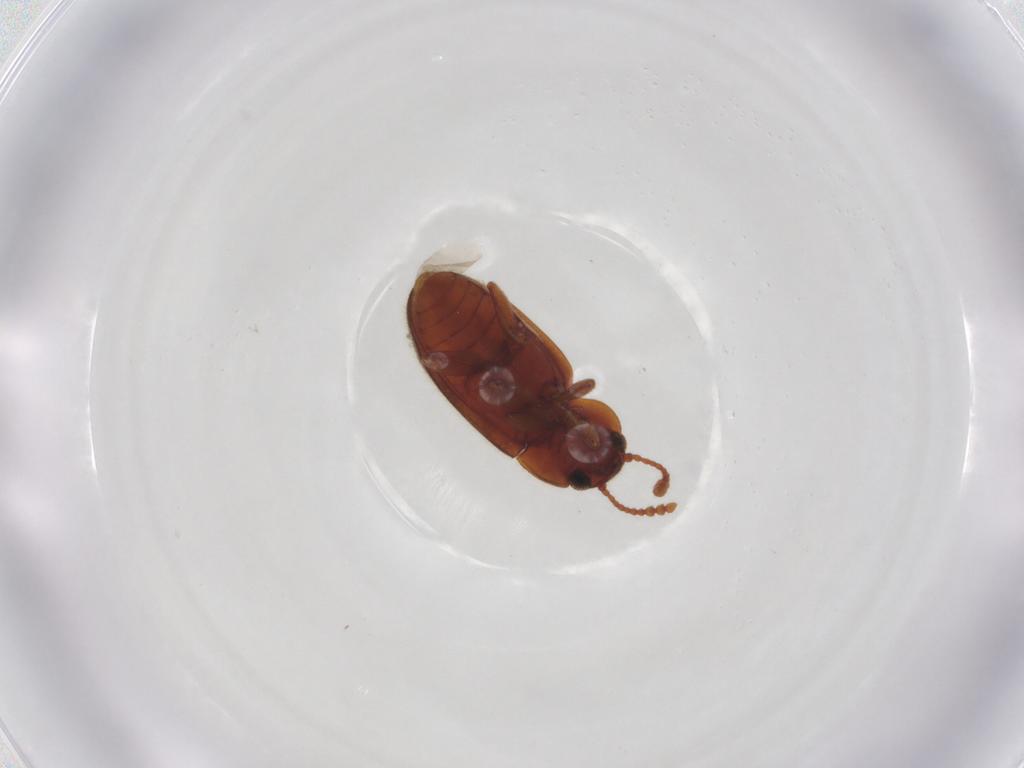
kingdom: Animalia
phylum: Arthropoda
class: Insecta
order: Coleoptera
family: Erotylidae
